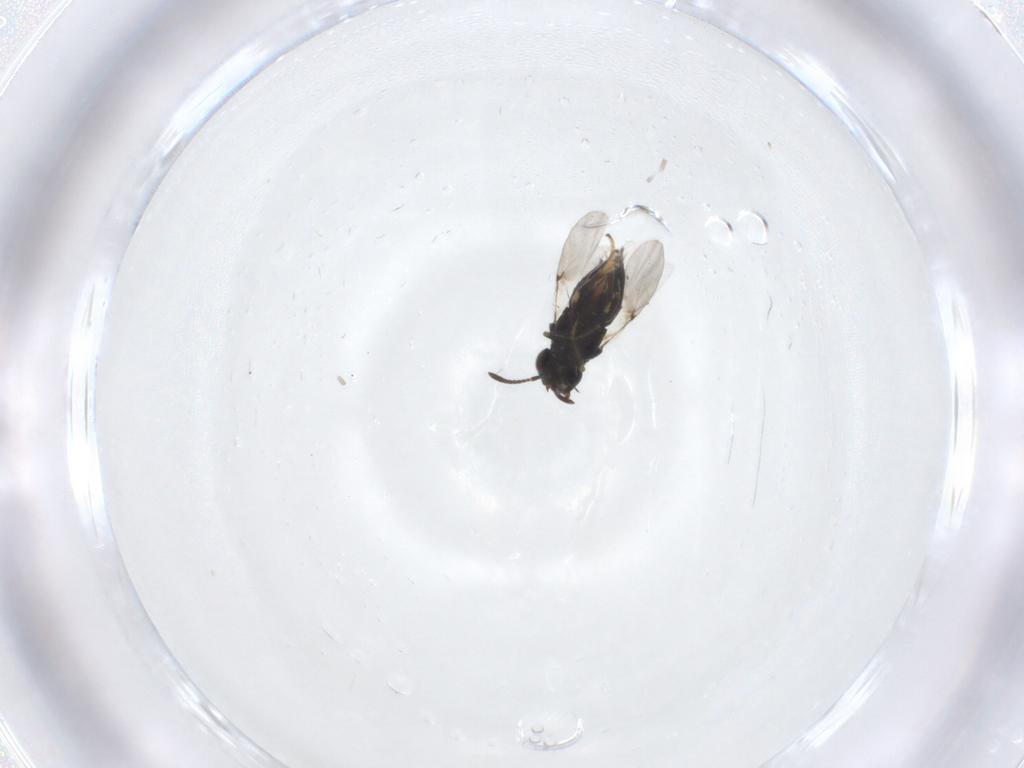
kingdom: Animalia
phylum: Arthropoda
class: Insecta
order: Hymenoptera
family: Encyrtidae
